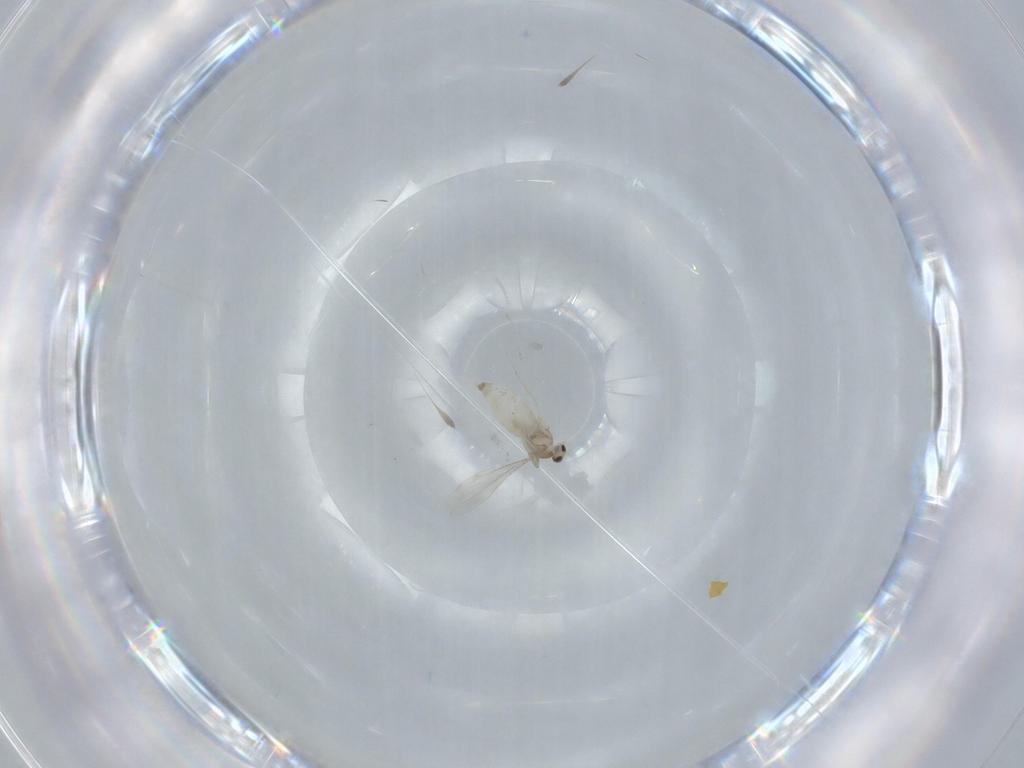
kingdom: Animalia
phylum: Arthropoda
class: Insecta
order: Diptera
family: Cecidomyiidae
